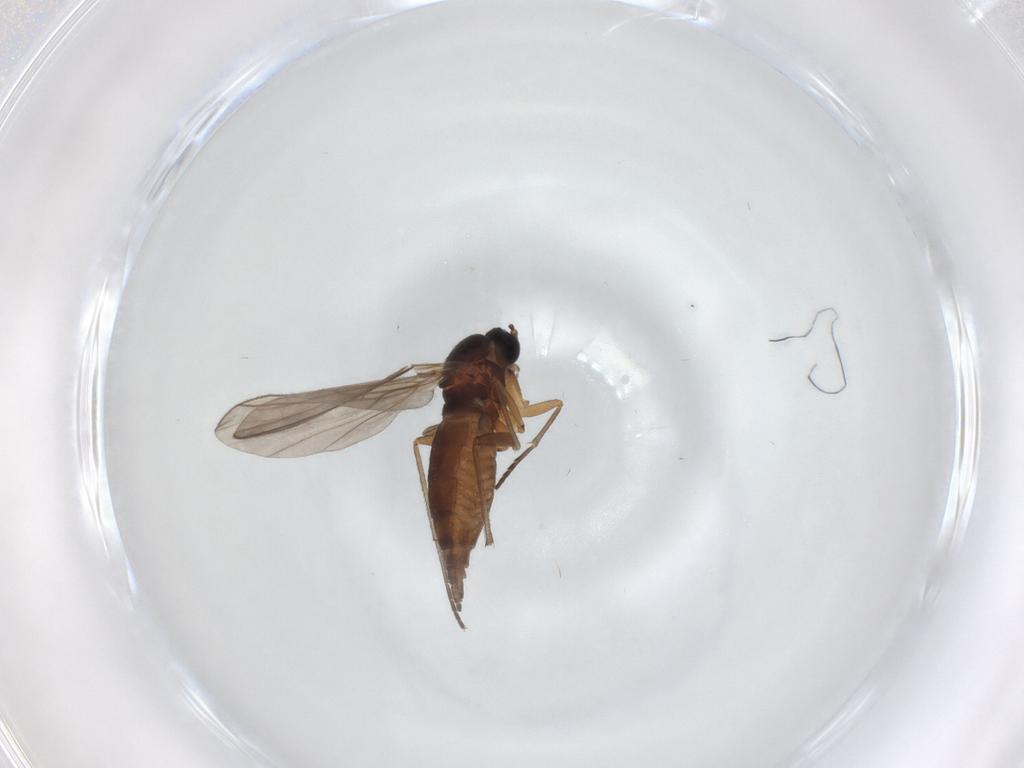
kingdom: Animalia
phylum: Arthropoda
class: Insecta
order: Diptera
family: Sciaridae
